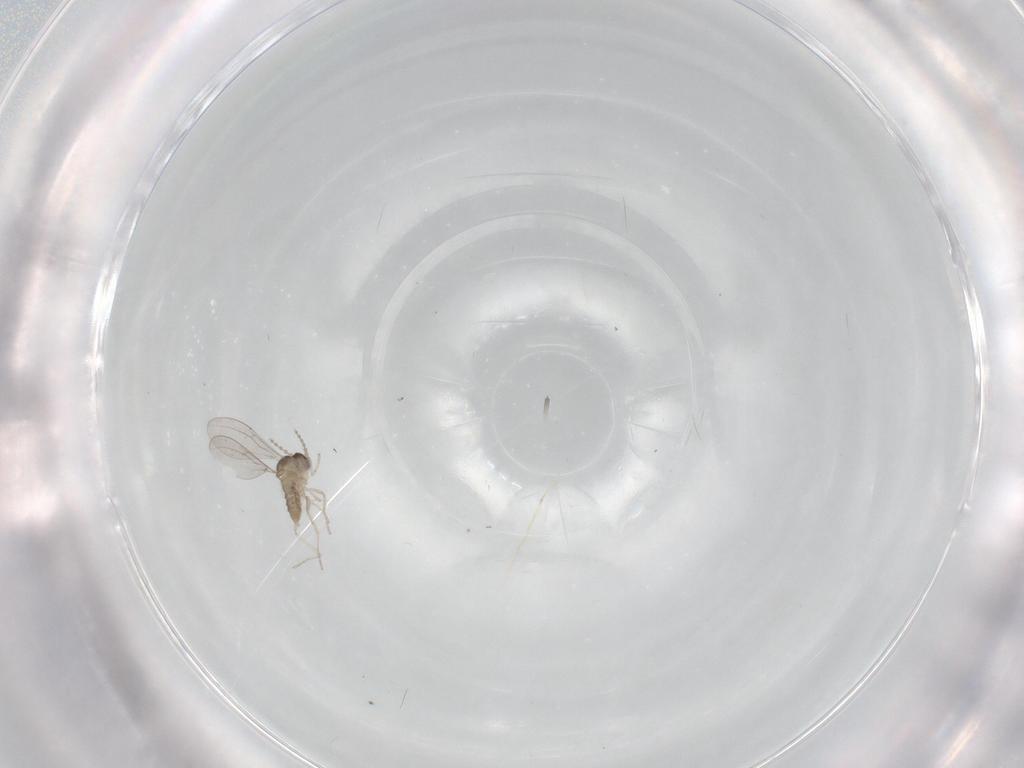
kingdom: Animalia
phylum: Arthropoda
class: Insecta
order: Diptera
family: Cecidomyiidae
